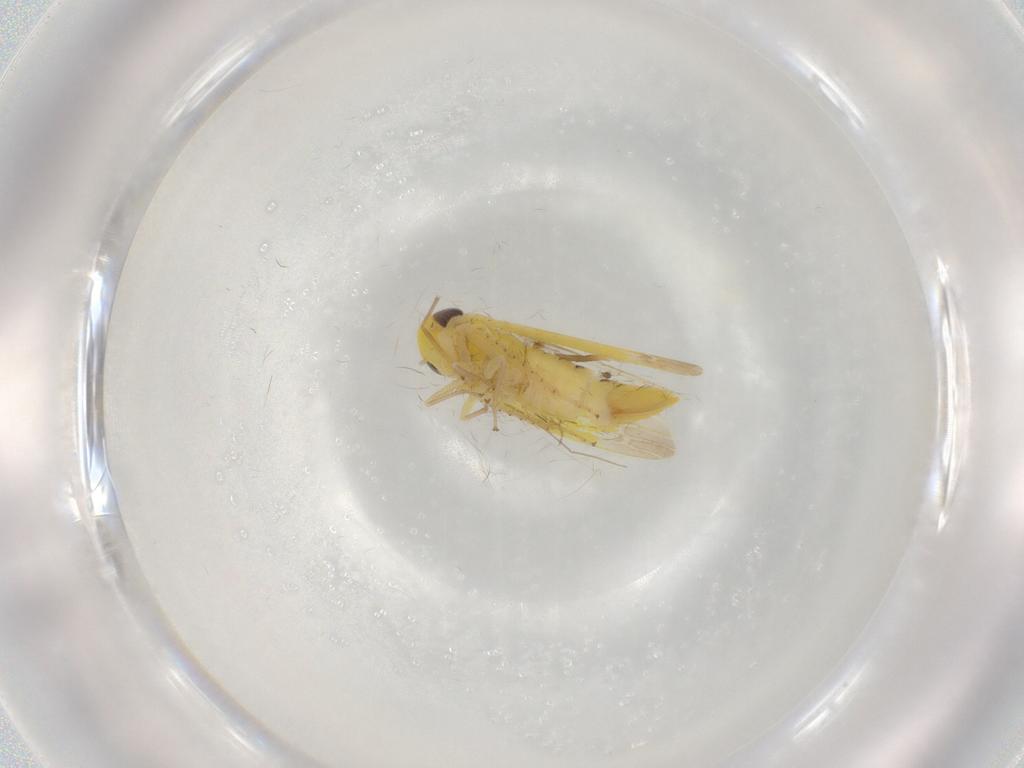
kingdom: Animalia
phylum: Arthropoda
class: Insecta
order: Hemiptera
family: Cicadellidae
